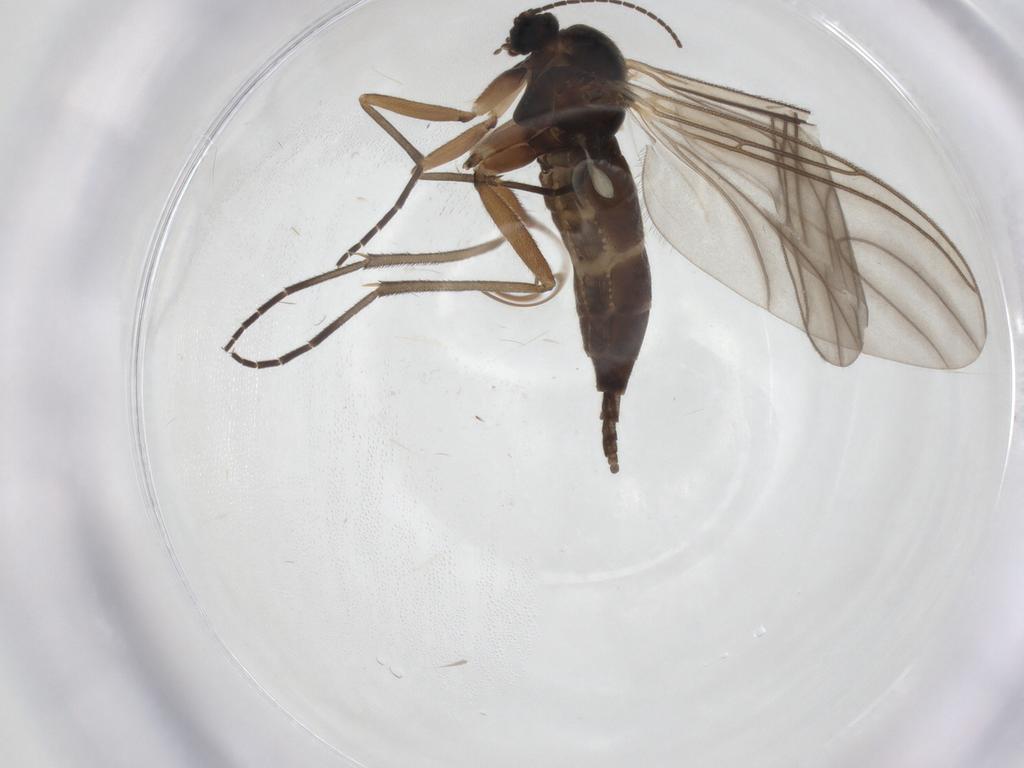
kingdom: Animalia
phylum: Arthropoda
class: Insecta
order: Diptera
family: Sciaridae
